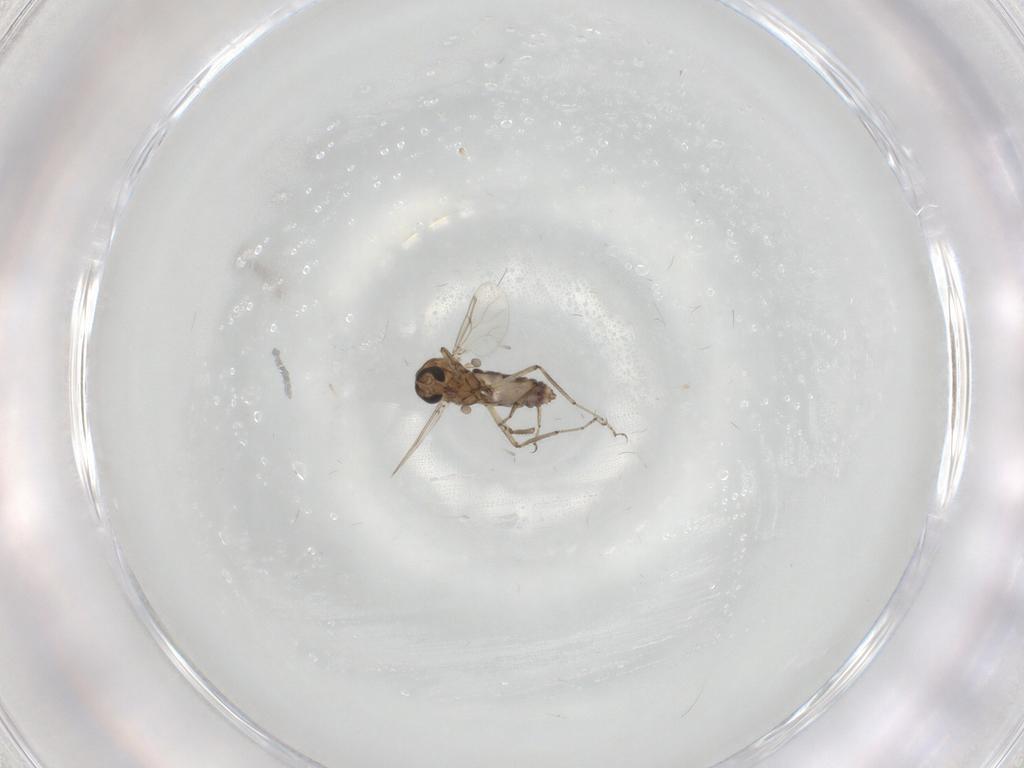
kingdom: Animalia
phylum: Arthropoda
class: Insecta
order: Diptera
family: Ceratopogonidae
